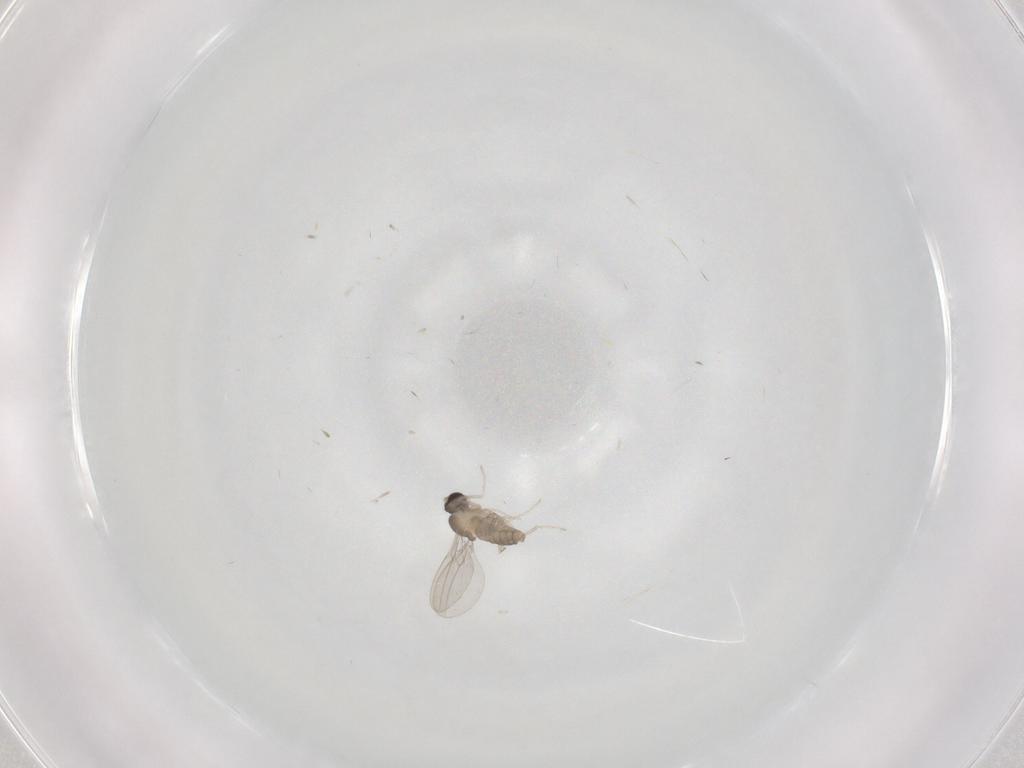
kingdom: Animalia
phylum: Arthropoda
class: Insecta
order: Diptera
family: Cecidomyiidae
